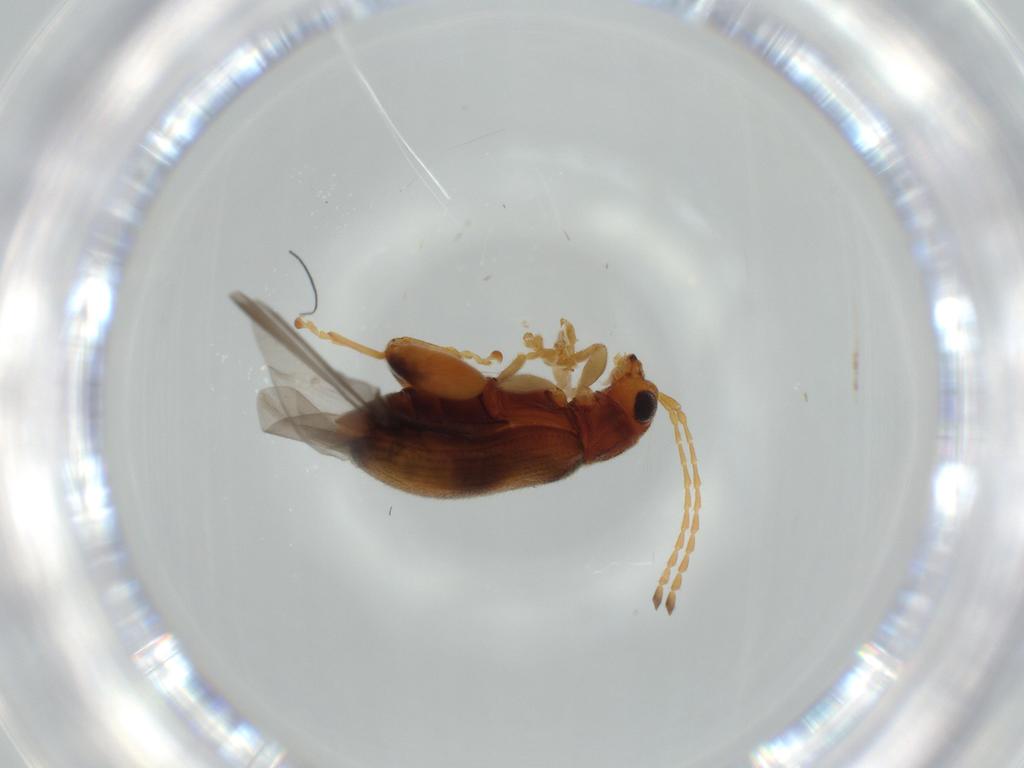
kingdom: Animalia
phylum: Arthropoda
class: Insecta
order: Coleoptera
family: Chrysomelidae
